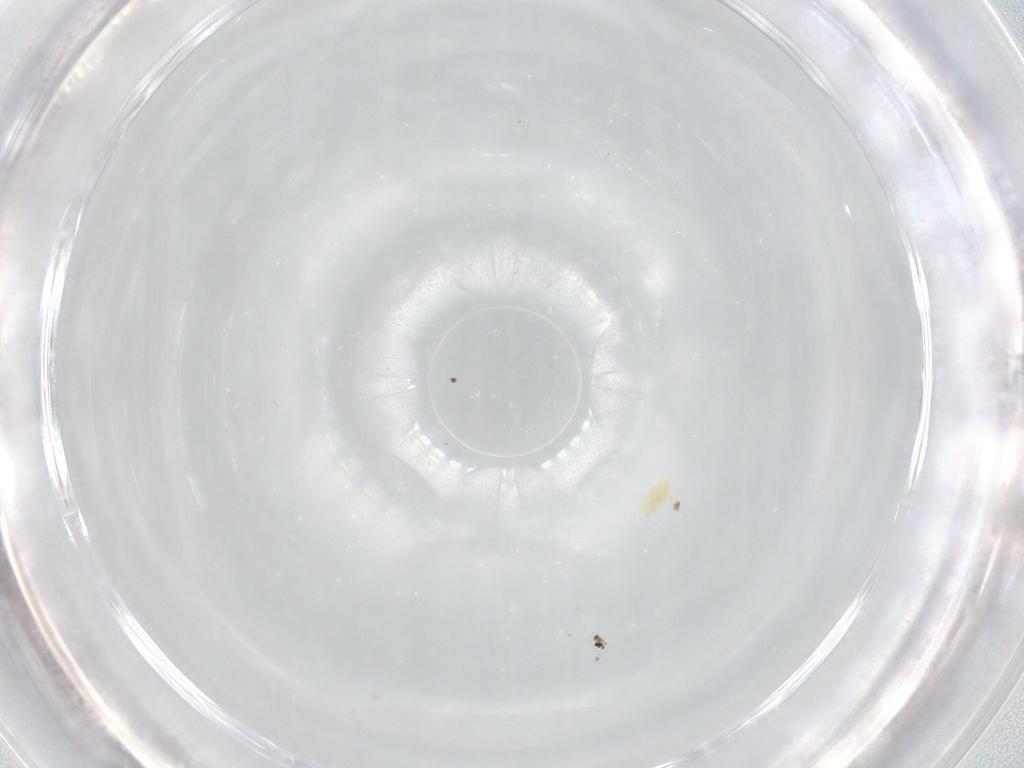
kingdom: Animalia
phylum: Arthropoda
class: Arachnida
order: Trombidiformes
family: Eupodidae
